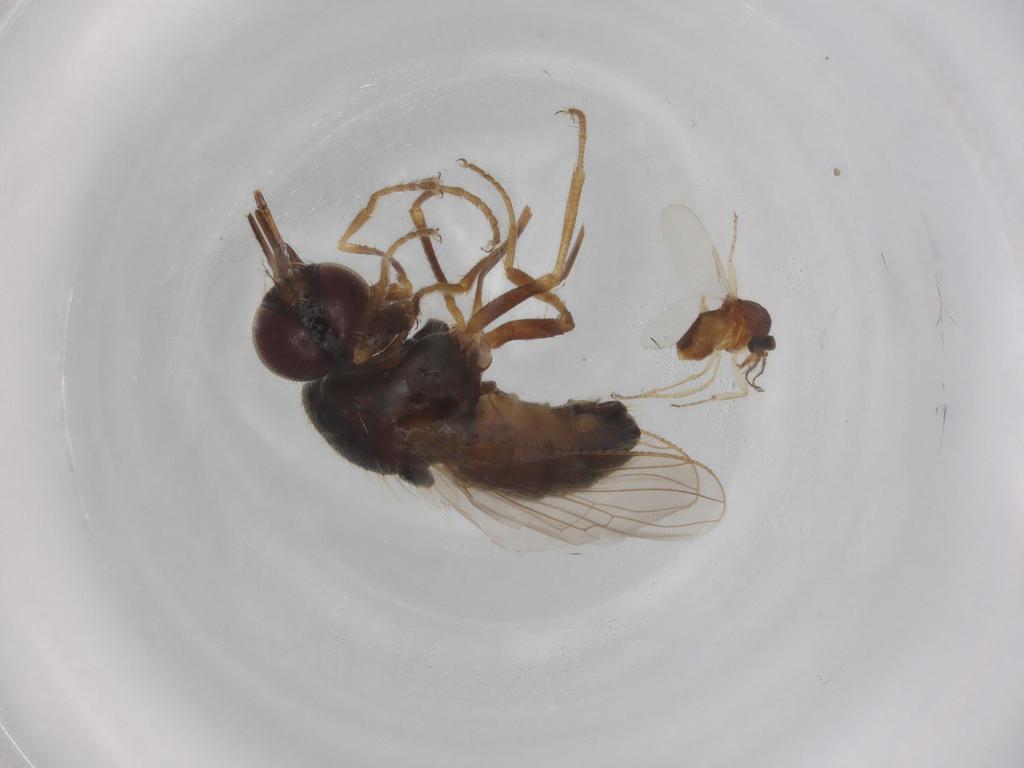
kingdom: Animalia
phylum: Arthropoda
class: Insecta
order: Diptera
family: Ceratopogonidae
